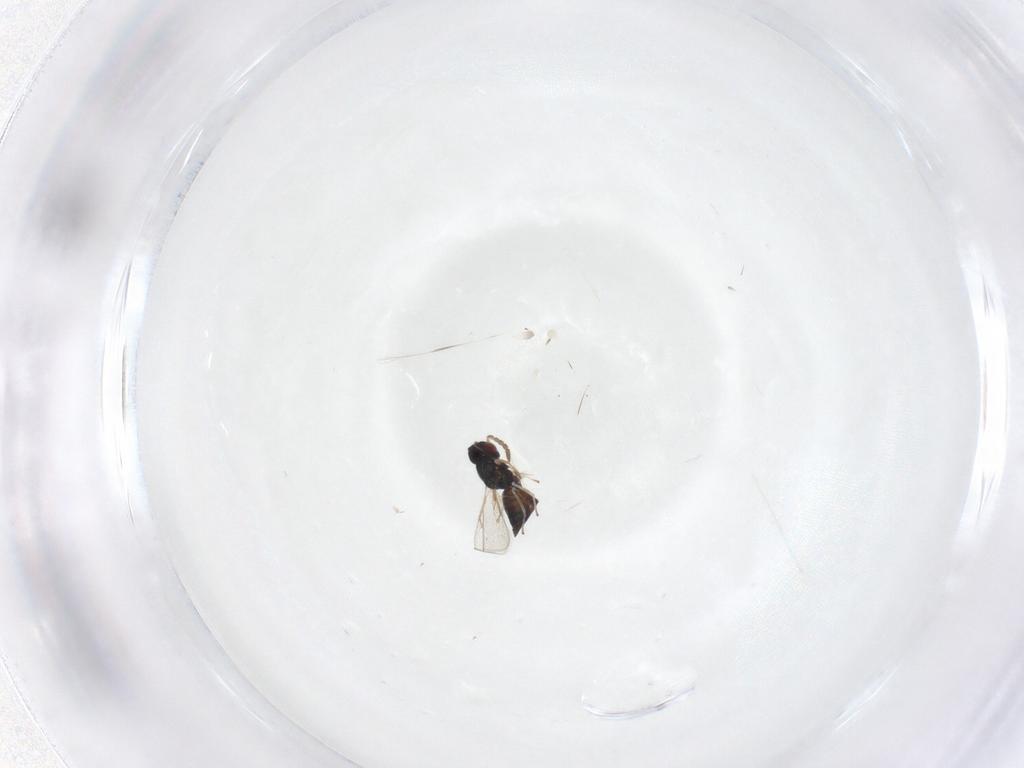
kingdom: Animalia
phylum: Arthropoda
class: Insecta
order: Hymenoptera
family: Eulophidae
